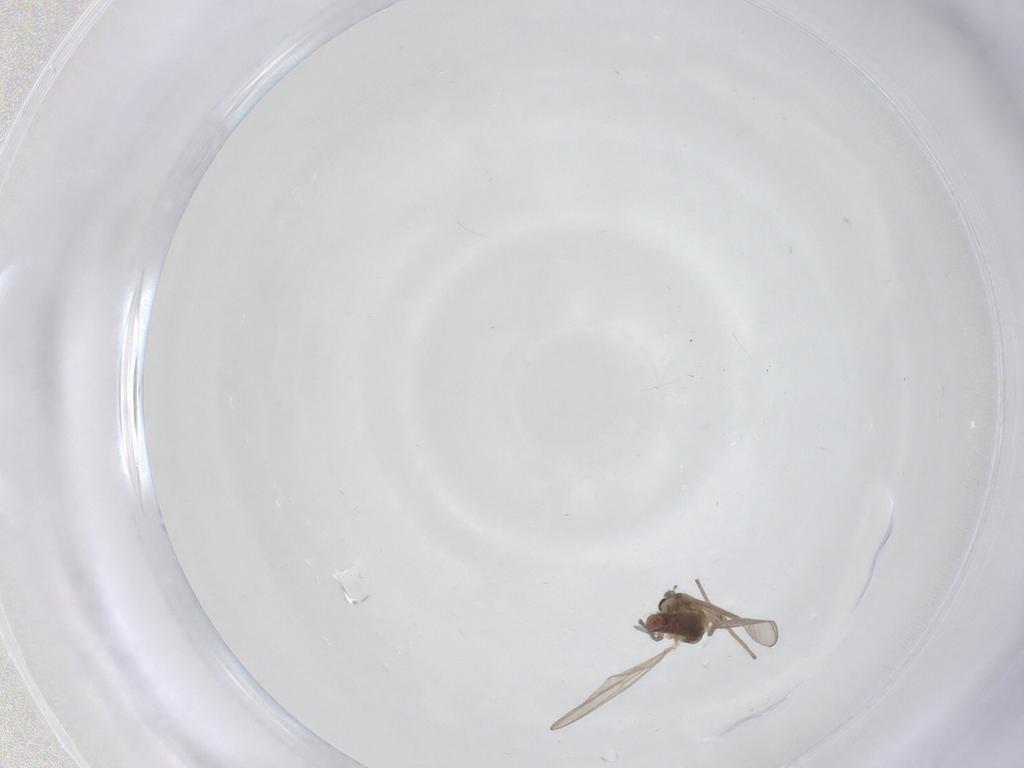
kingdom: Animalia
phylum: Arthropoda
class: Insecta
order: Diptera
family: Chironomidae
